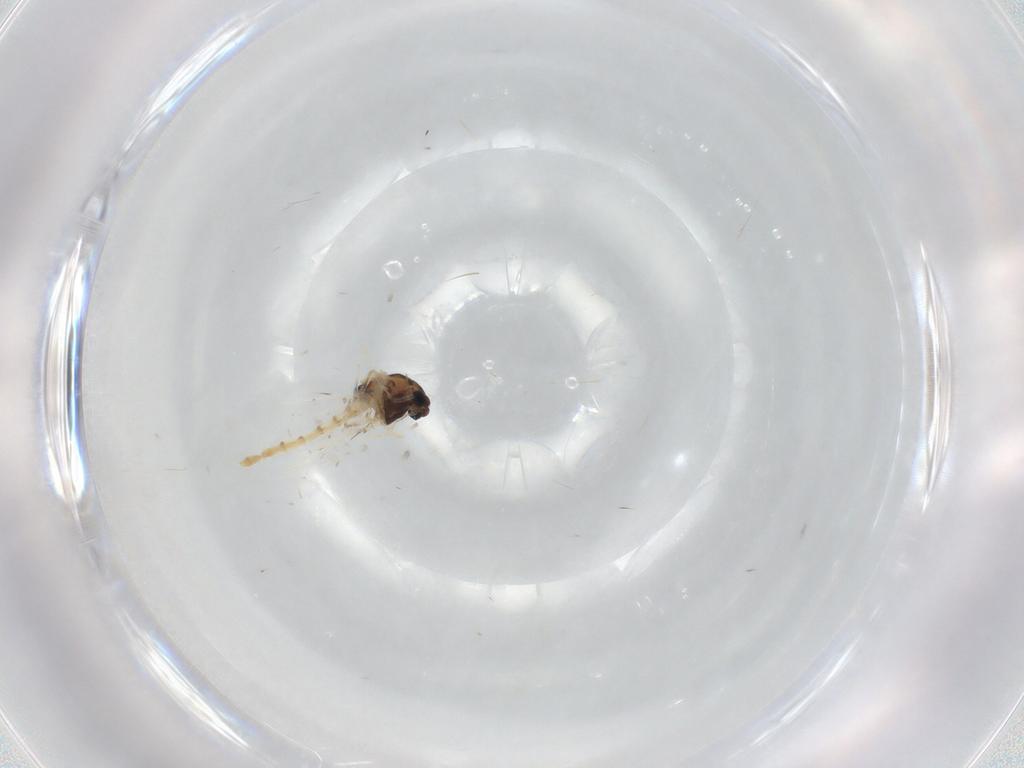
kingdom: Animalia
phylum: Arthropoda
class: Insecta
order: Diptera
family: Chironomidae
